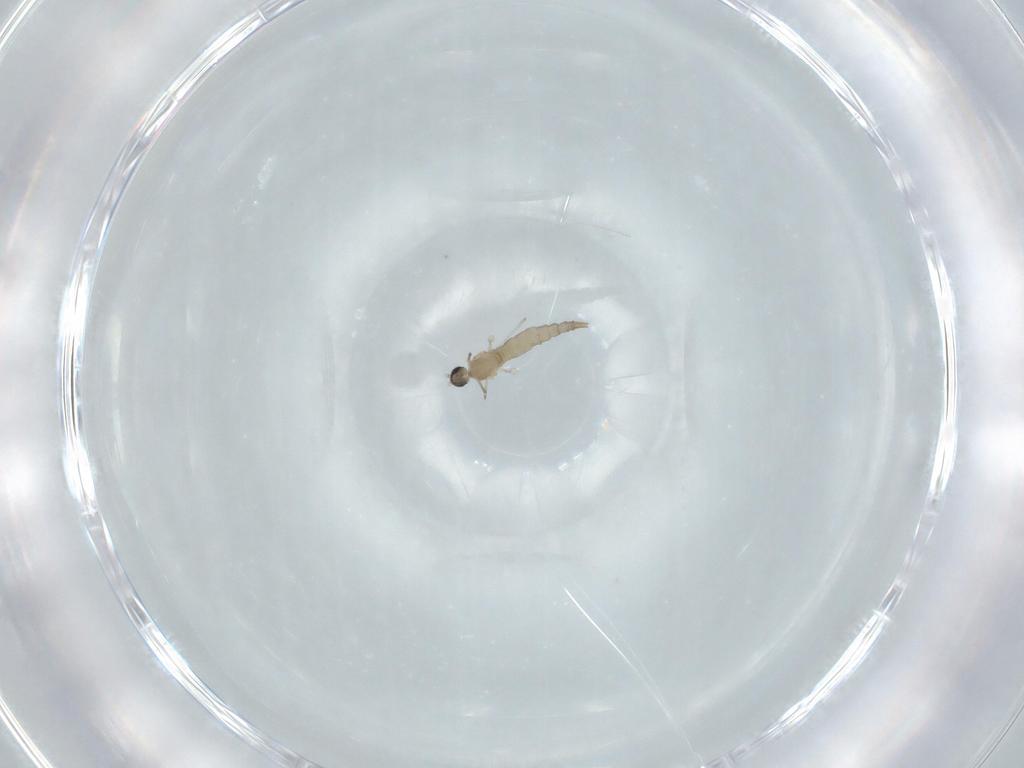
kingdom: Animalia
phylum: Arthropoda
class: Insecta
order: Diptera
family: Cecidomyiidae
